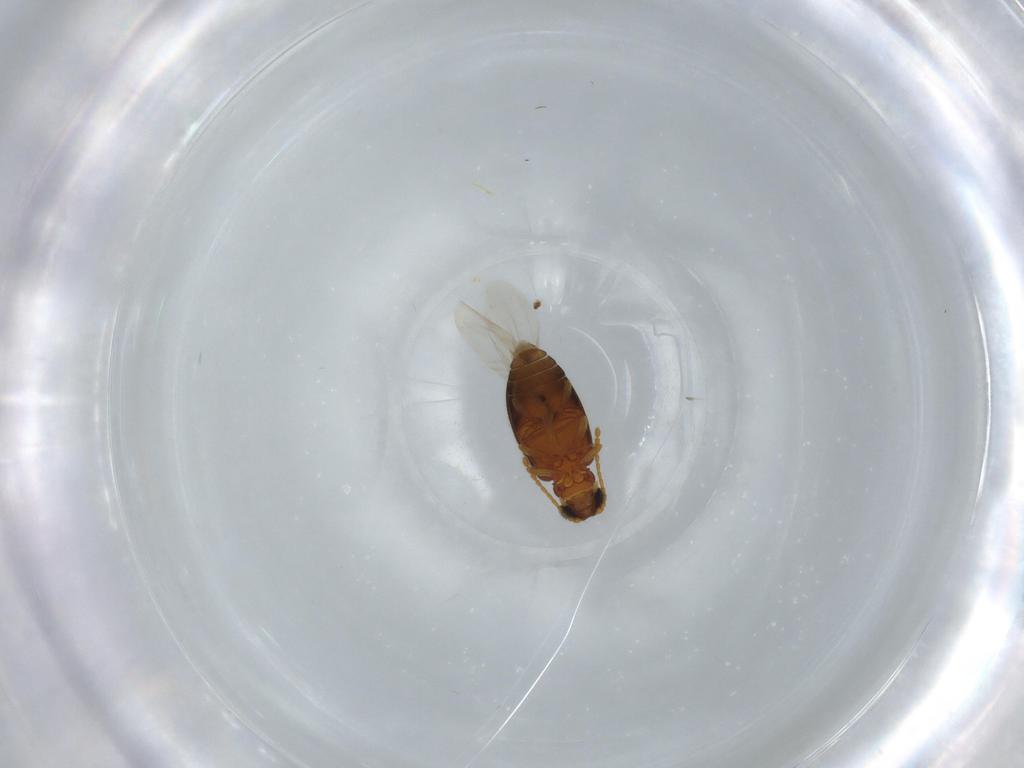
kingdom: Animalia
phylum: Arthropoda
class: Insecta
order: Coleoptera
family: Aderidae
